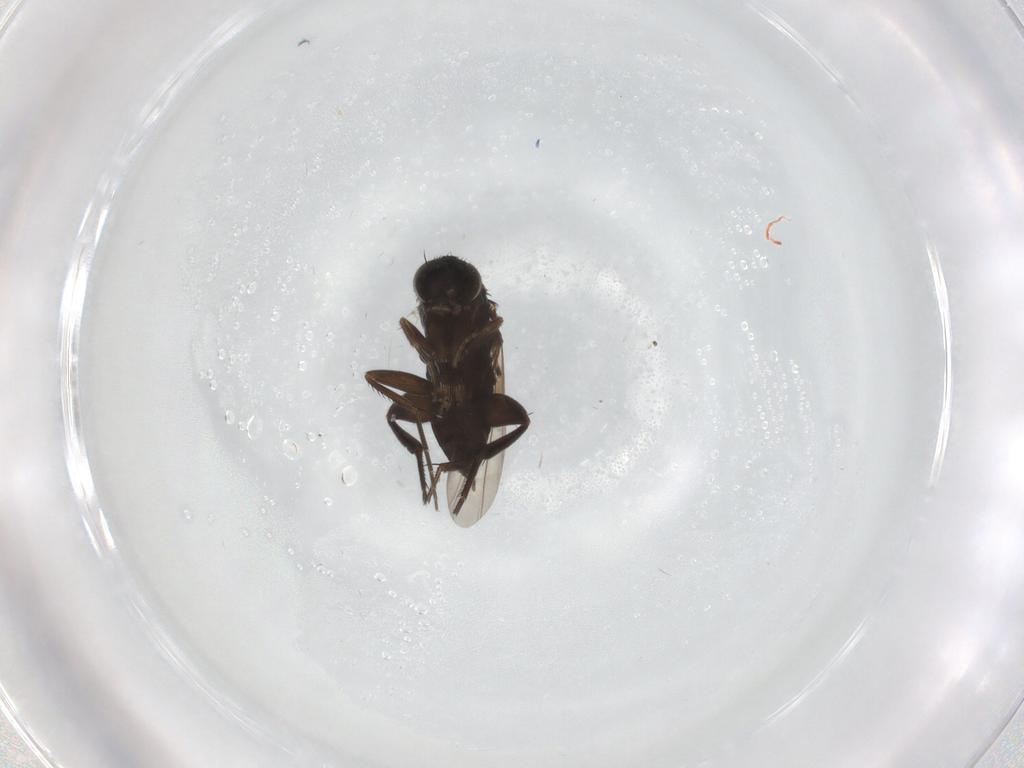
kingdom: Animalia
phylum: Arthropoda
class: Insecta
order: Diptera
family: Phoridae
